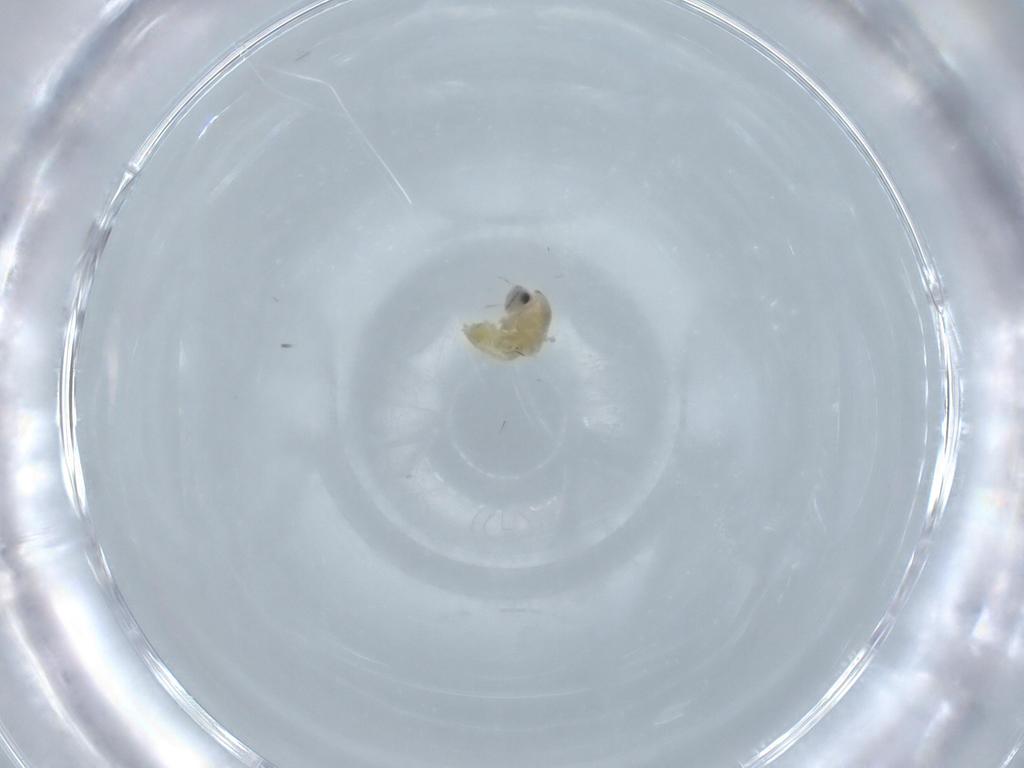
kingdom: Animalia
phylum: Arthropoda
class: Insecta
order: Diptera
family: Chironomidae
